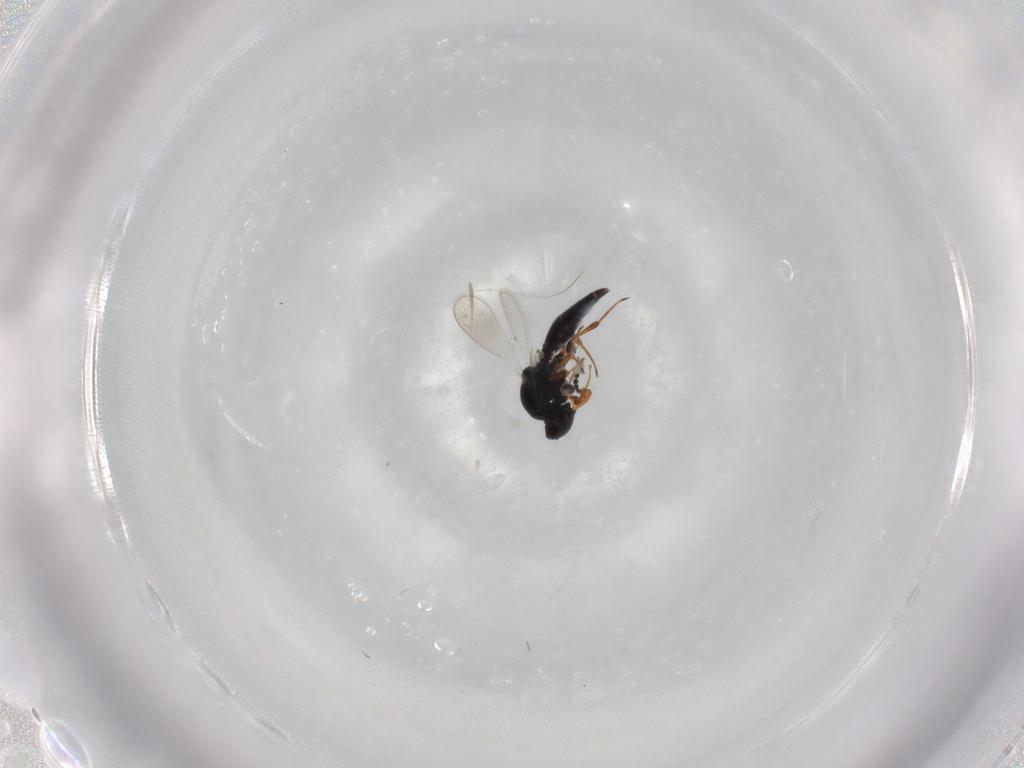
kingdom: Animalia
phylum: Arthropoda
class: Insecta
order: Hymenoptera
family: Platygastridae
